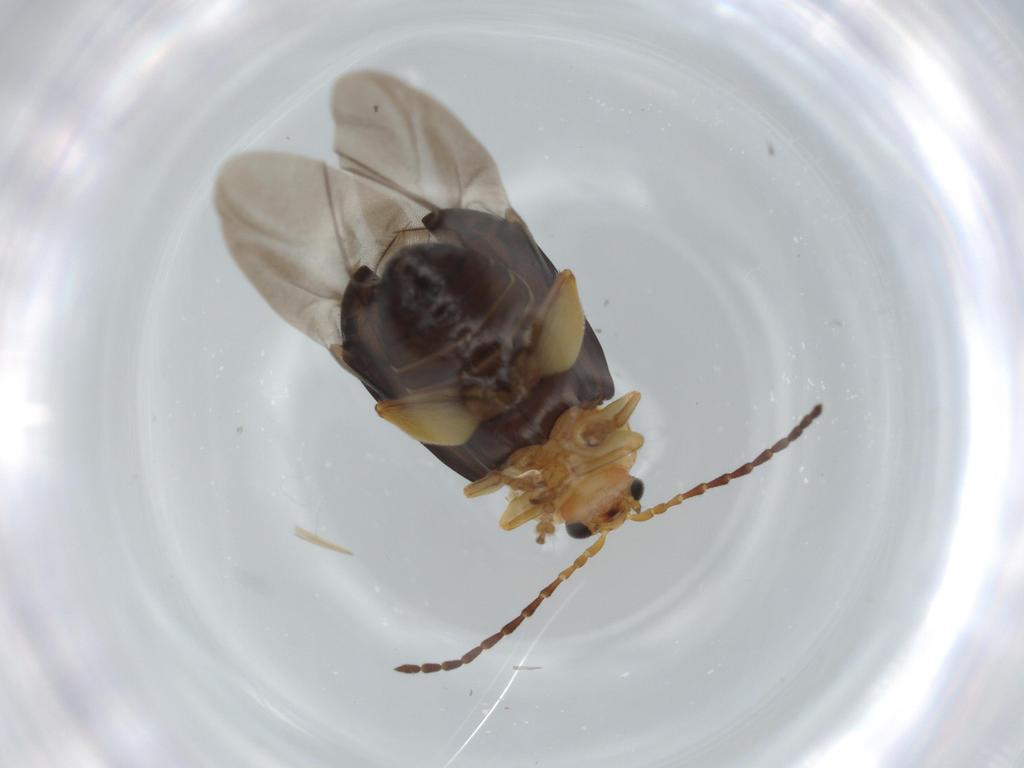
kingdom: Animalia
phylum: Arthropoda
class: Insecta
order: Coleoptera
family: Chrysomelidae
